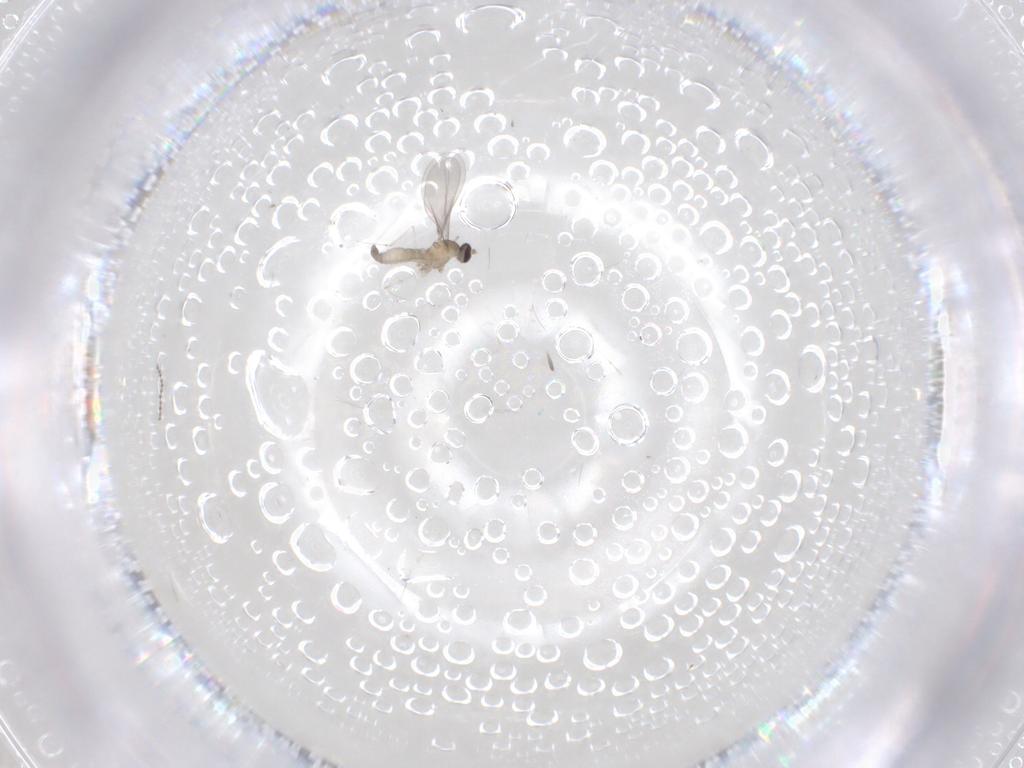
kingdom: Animalia
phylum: Arthropoda
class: Insecta
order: Diptera
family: Cecidomyiidae
